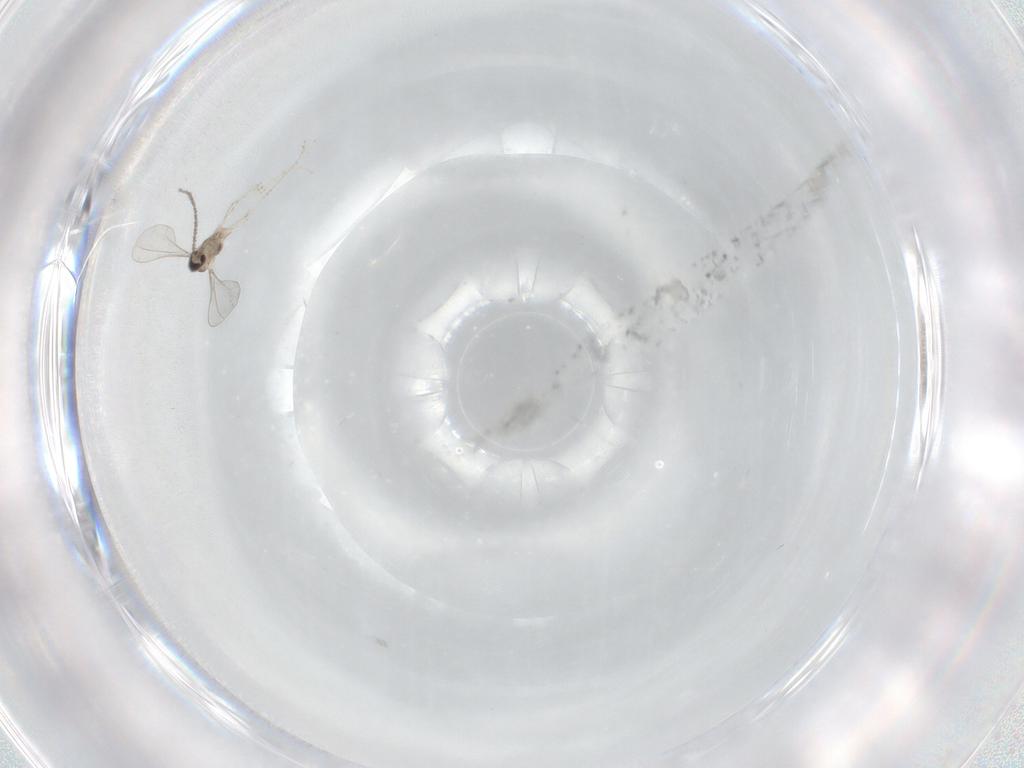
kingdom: Animalia
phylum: Arthropoda
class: Insecta
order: Diptera
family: Cecidomyiidae
